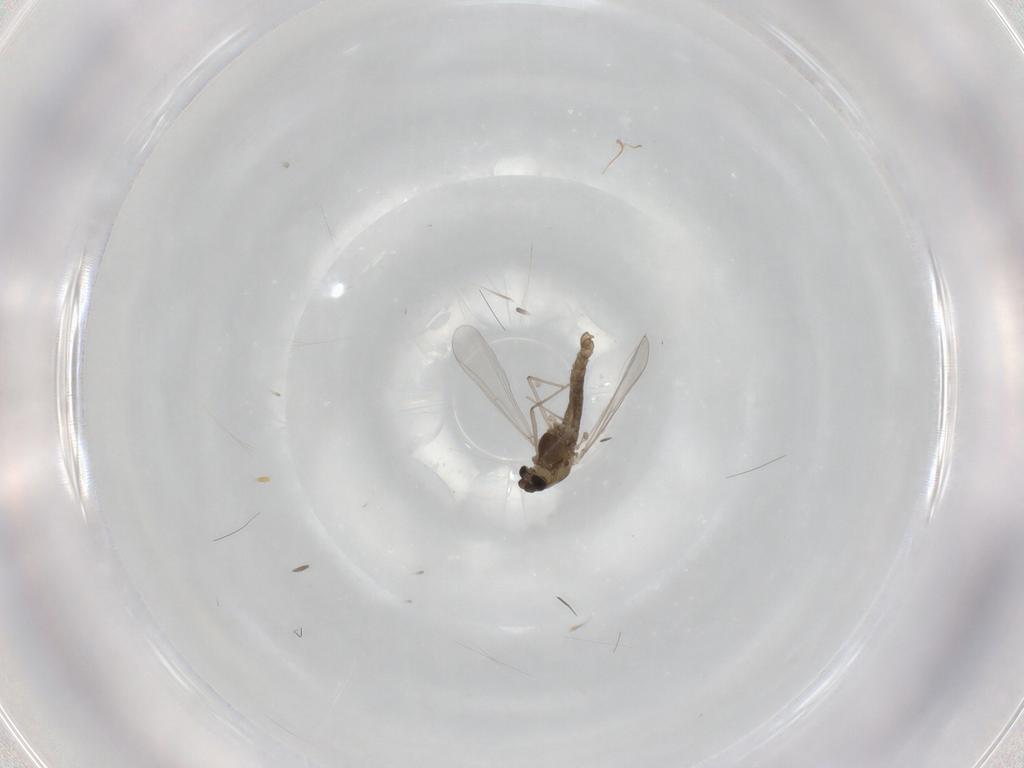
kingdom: Animalia
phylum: Arthropoda
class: Insecta
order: Diptera
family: Chironomidae
